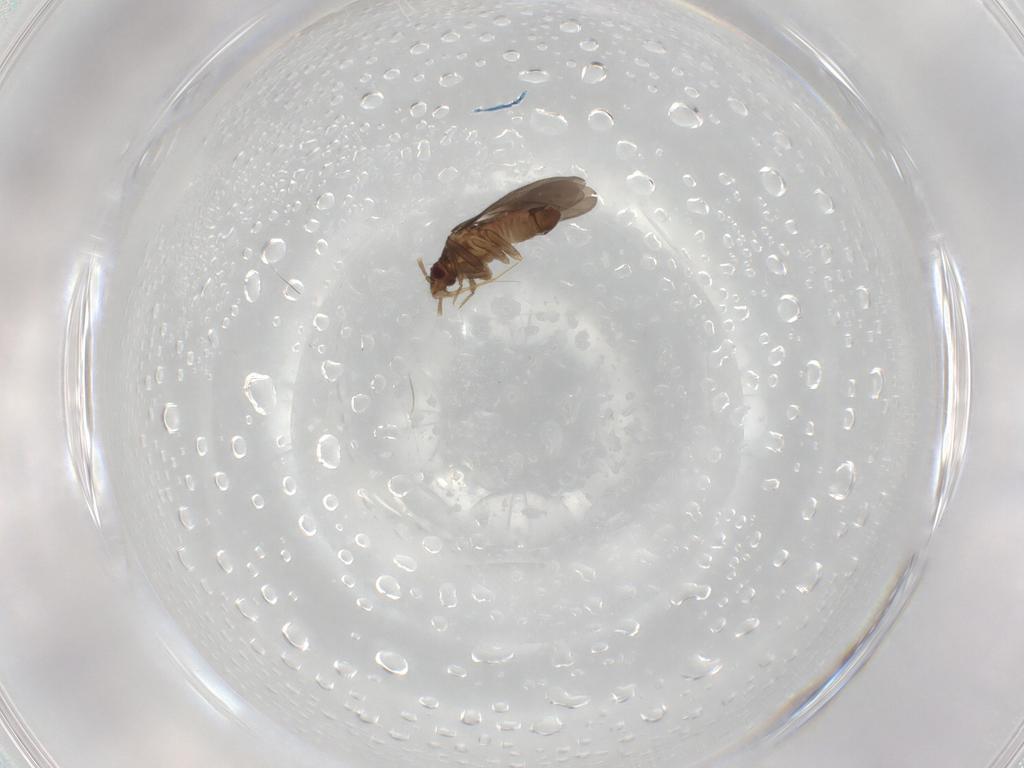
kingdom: Animalia
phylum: Arthropoda
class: Insecta
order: Hemiptera
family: Ceratocombidae
